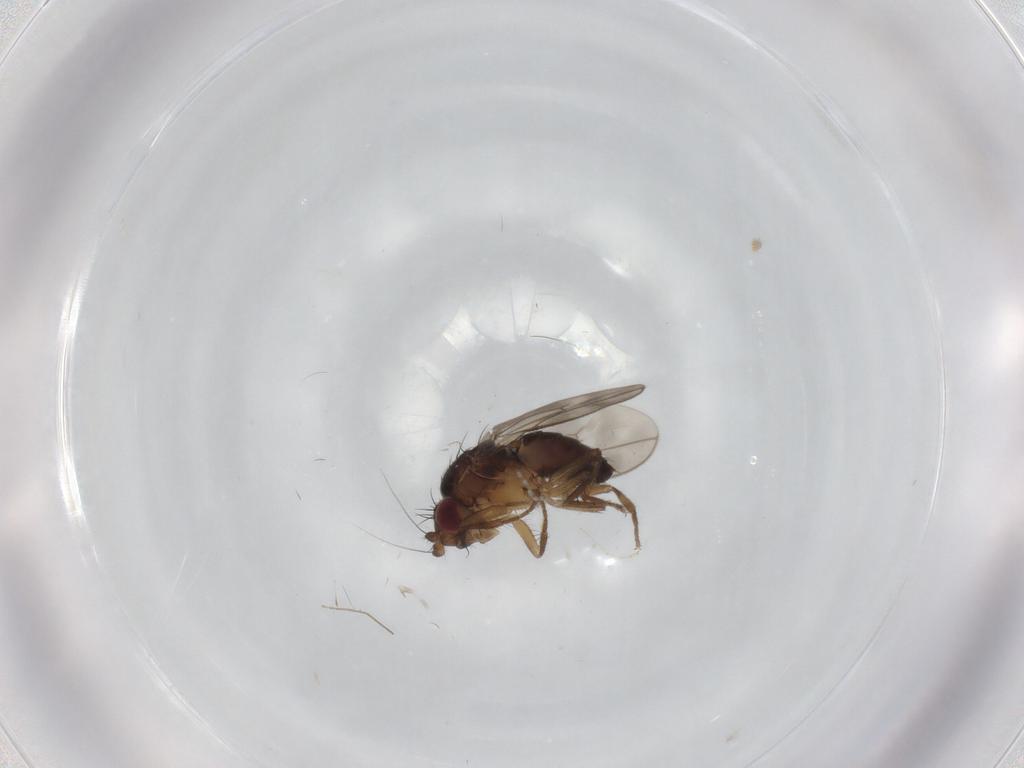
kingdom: Animalia
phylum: Arthropoda
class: Insecta
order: Diptera
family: Sphaeroceridae
